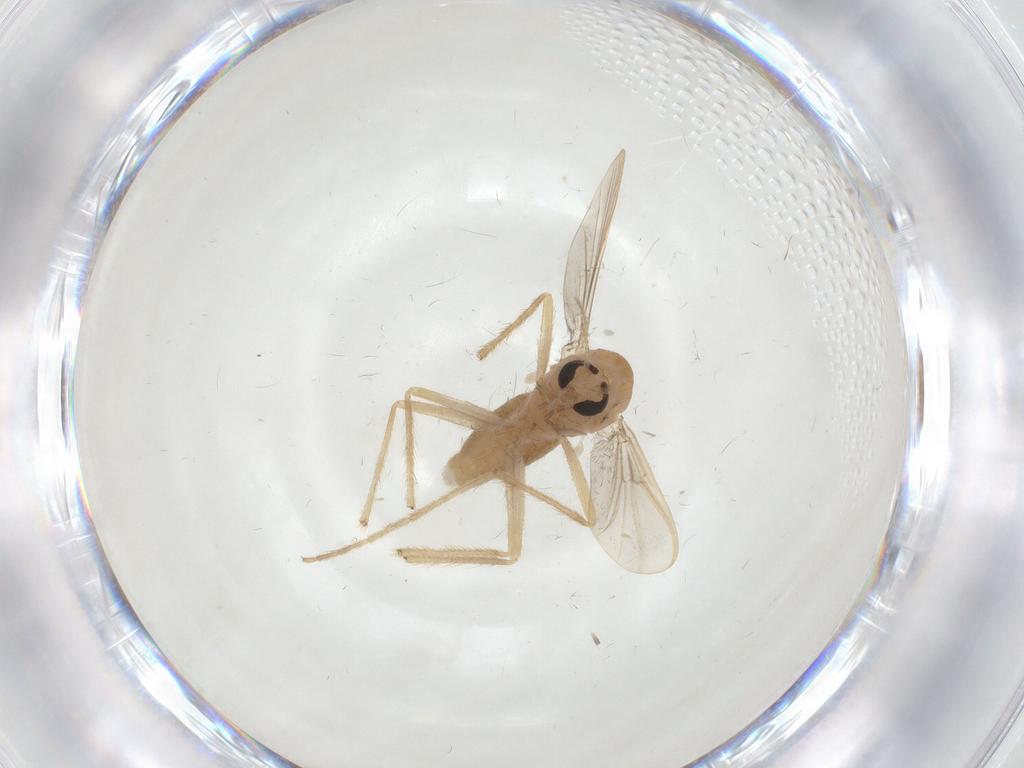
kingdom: Animalia
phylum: Arthropoda
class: Insecta
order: Diptera
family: Chironomidae
